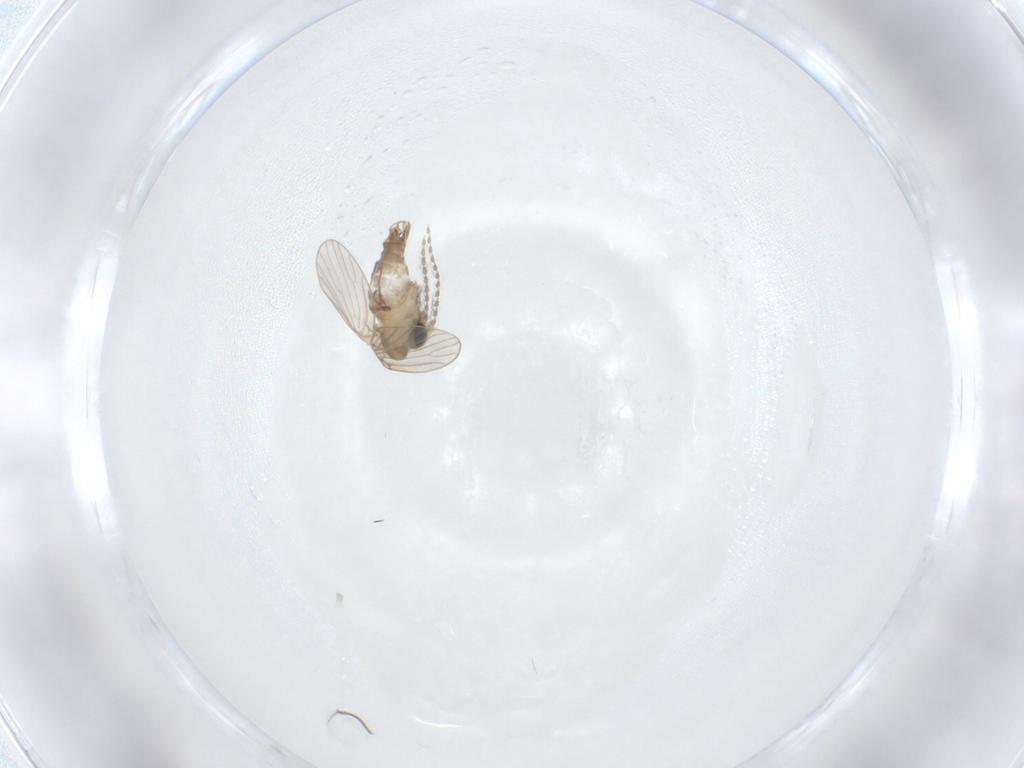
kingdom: Animalia
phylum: Arthropoda
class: Insecta
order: Diptera
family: Psychodidae
